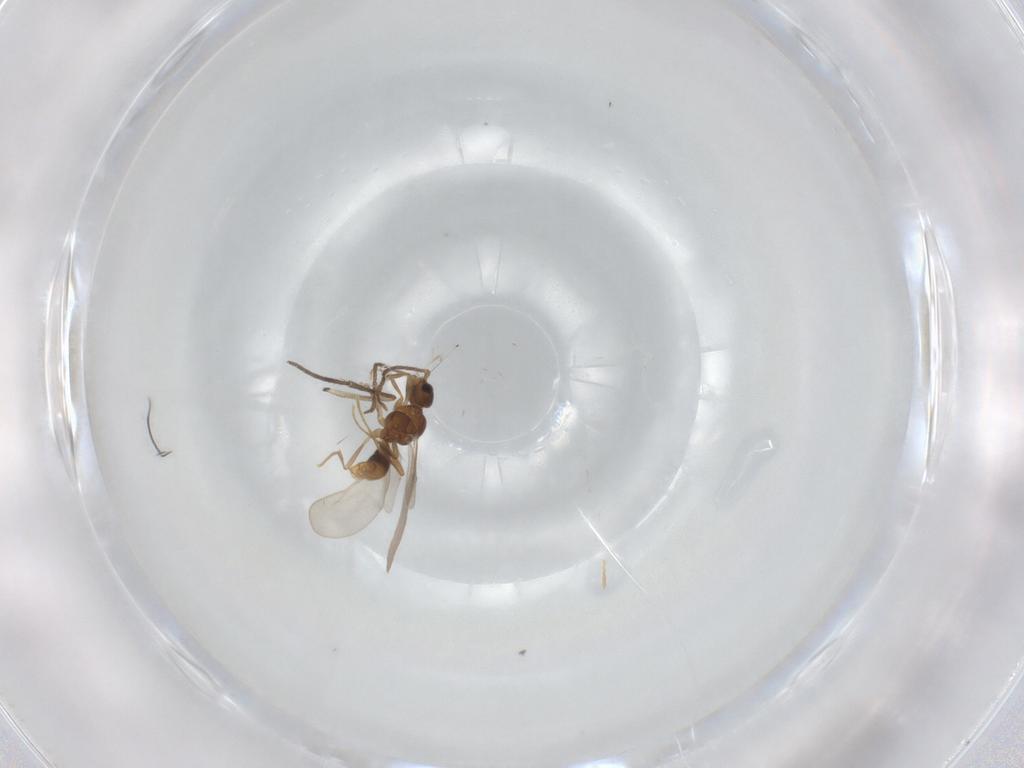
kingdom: Animalia
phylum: Arthropoda
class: Insecta
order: Hymenoptera
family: Formicidae
